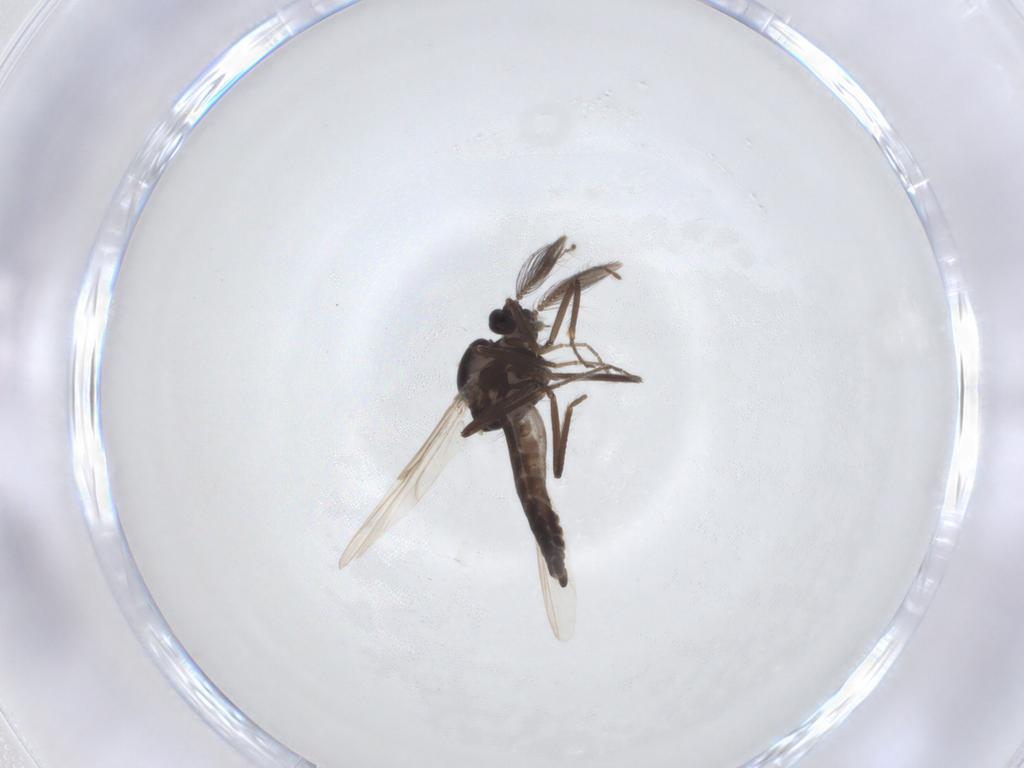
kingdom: Animalia
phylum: Arthropoda
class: Insecta
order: Diptera
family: Ceratopogonidae
